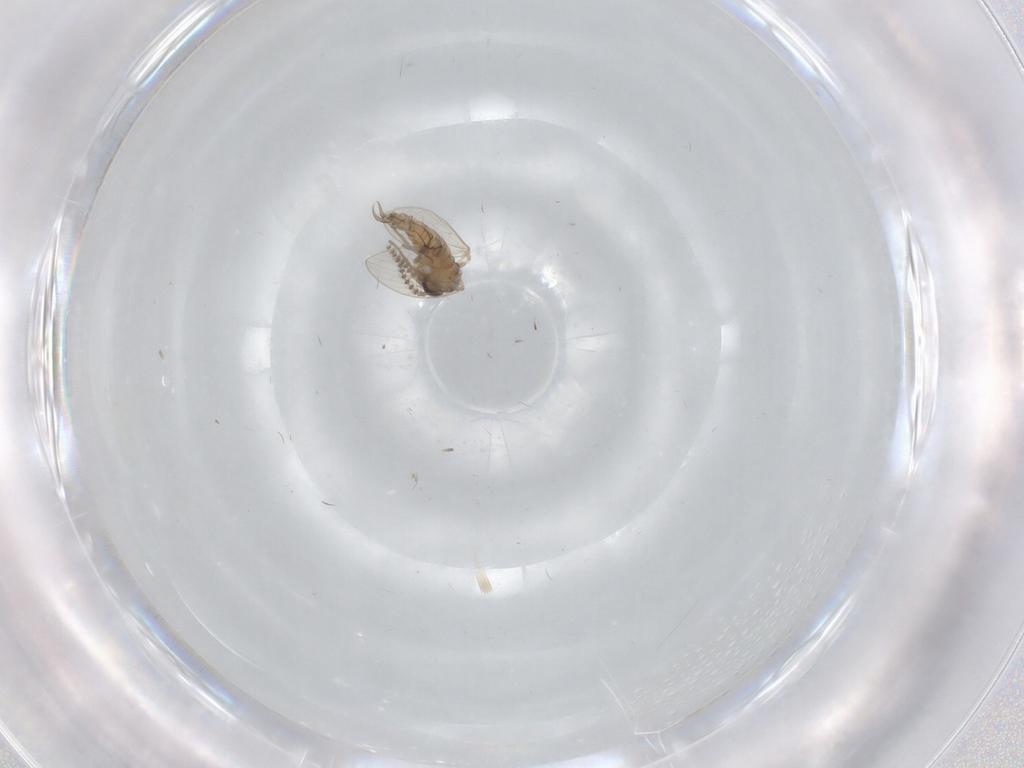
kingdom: Animalia
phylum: Arthropoda
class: Insecta
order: Diptera
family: Psychodidae
